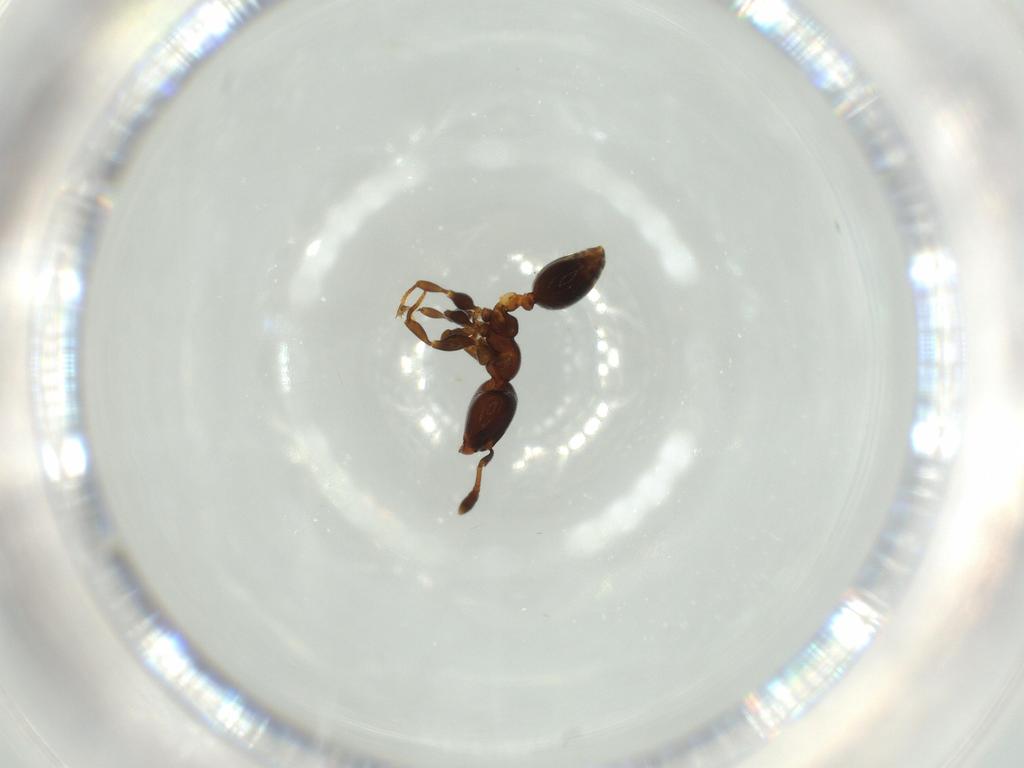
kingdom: Animalia
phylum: Arthropoda
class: Insecta
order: Hymenoptera
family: Formicidae
